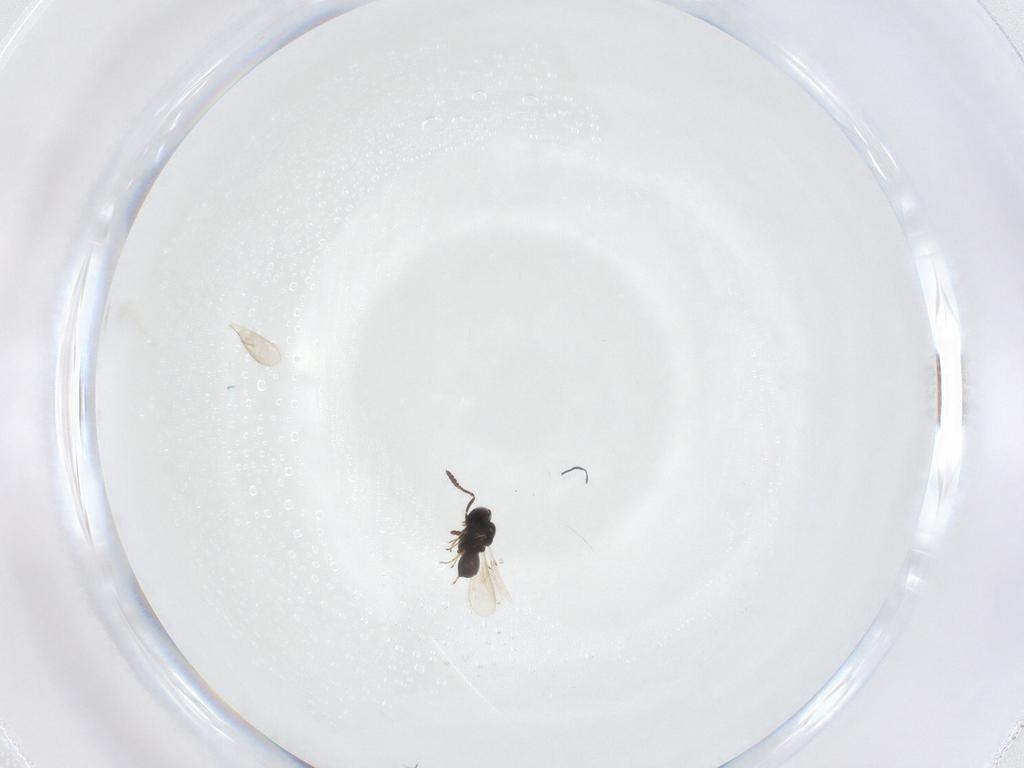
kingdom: Animalia
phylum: Arthropoda
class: Insecta
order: Hymenoptera
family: Scelionidae
